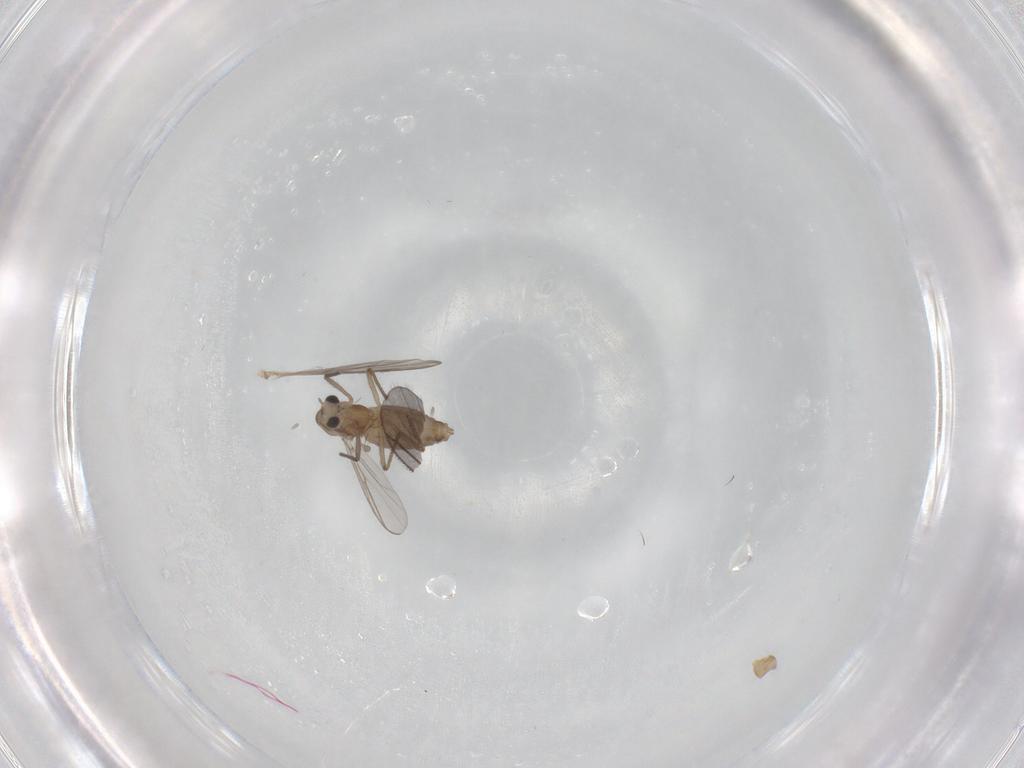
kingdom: Animalia
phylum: Arthropoda
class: Insecta
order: Diptera
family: Chironomidae
